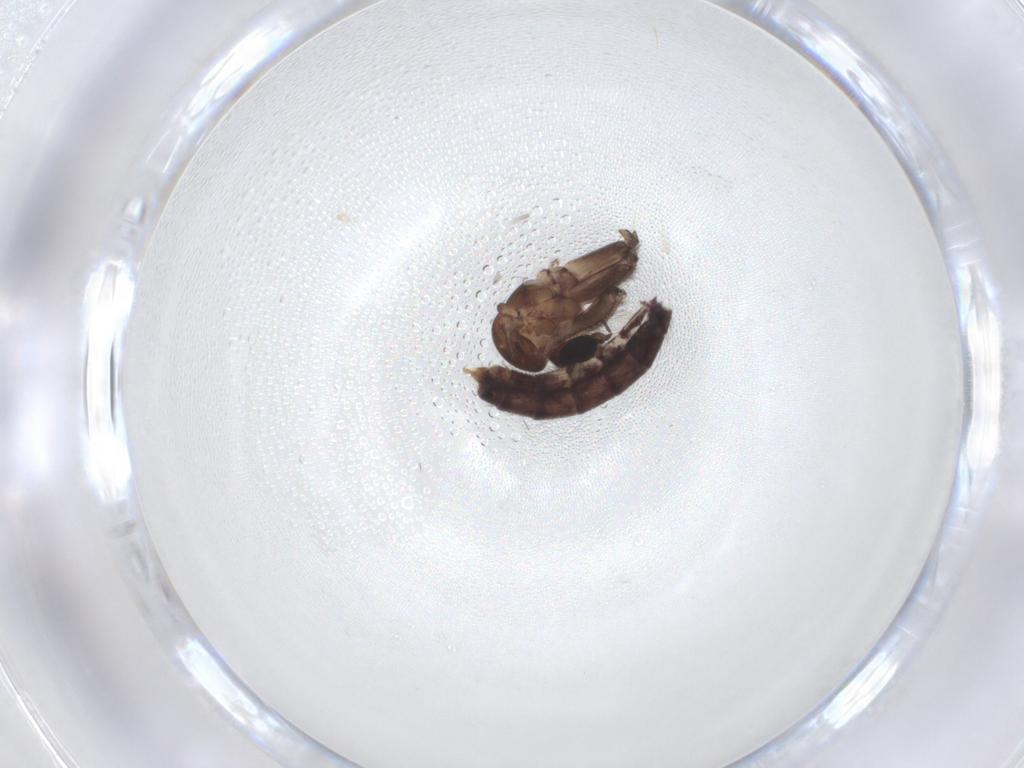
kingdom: Animalia
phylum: Arthropoda
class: Insecta
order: Diptera
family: Mycetophilidae
